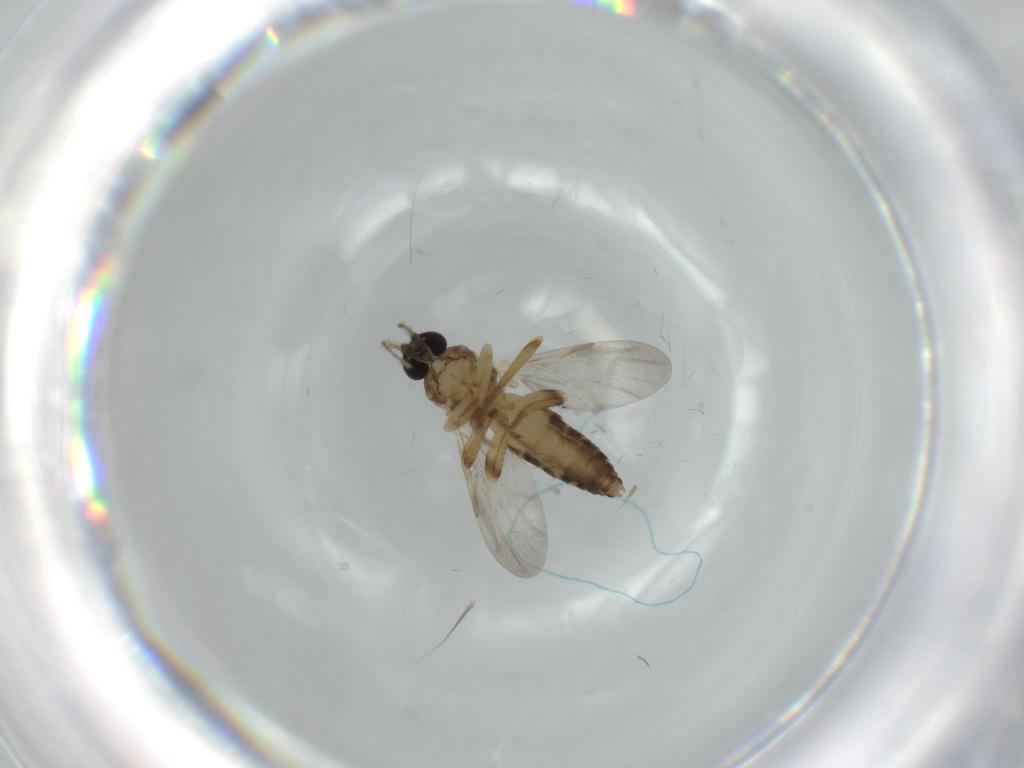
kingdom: Animalia
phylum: Arthropoda
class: Insecta
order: Diptera
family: Ceratopogonidae
